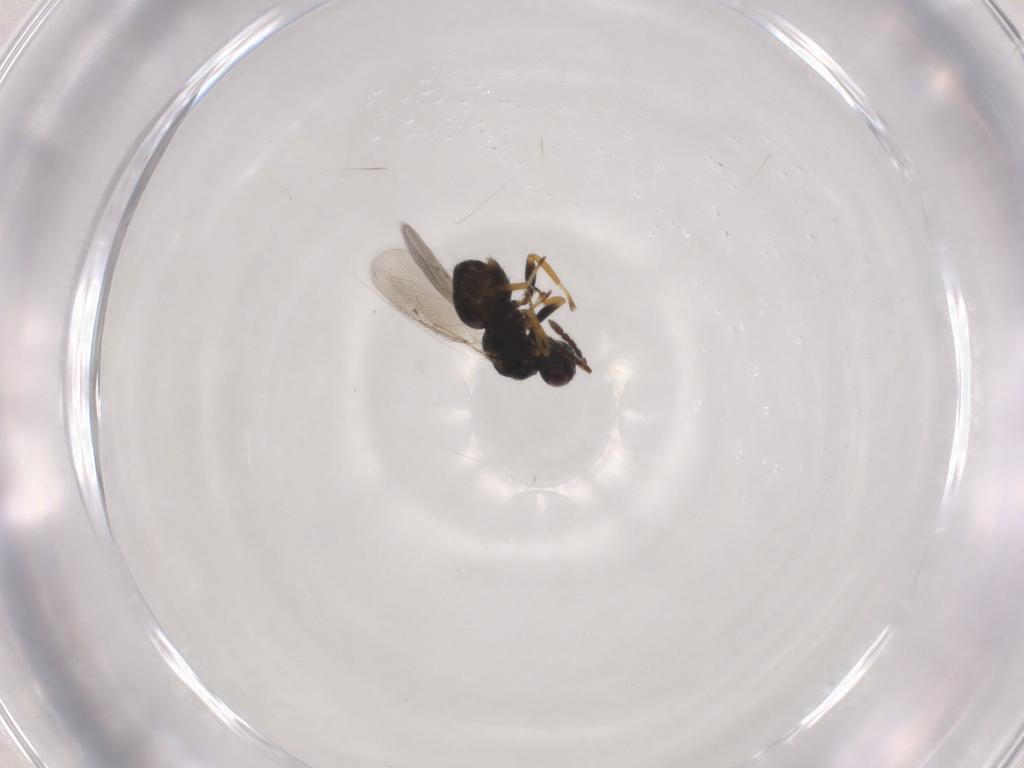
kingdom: Animalia
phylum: Arthropoda
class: Insecta
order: Hymenoptera
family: Eulophidae
